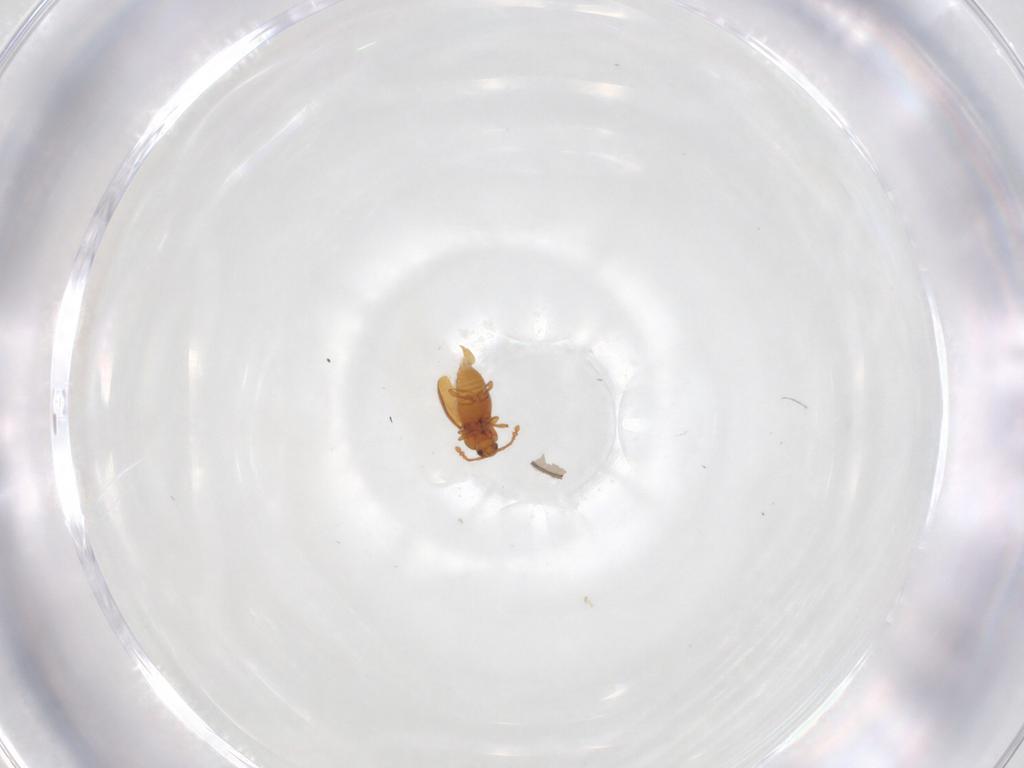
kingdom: Animalia
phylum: Arthropoda
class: Insecta
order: Coleoptera
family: Staphylinidae
